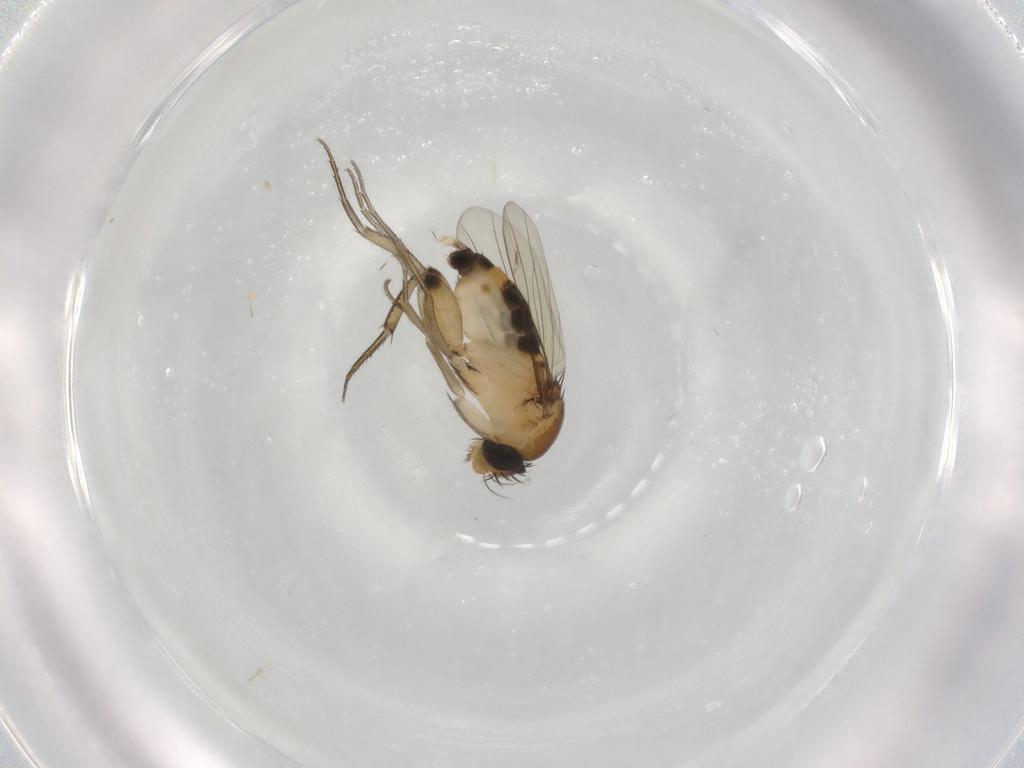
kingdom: Animalia
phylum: Arthropoda
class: Insecta
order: Diptera
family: Phoridae
